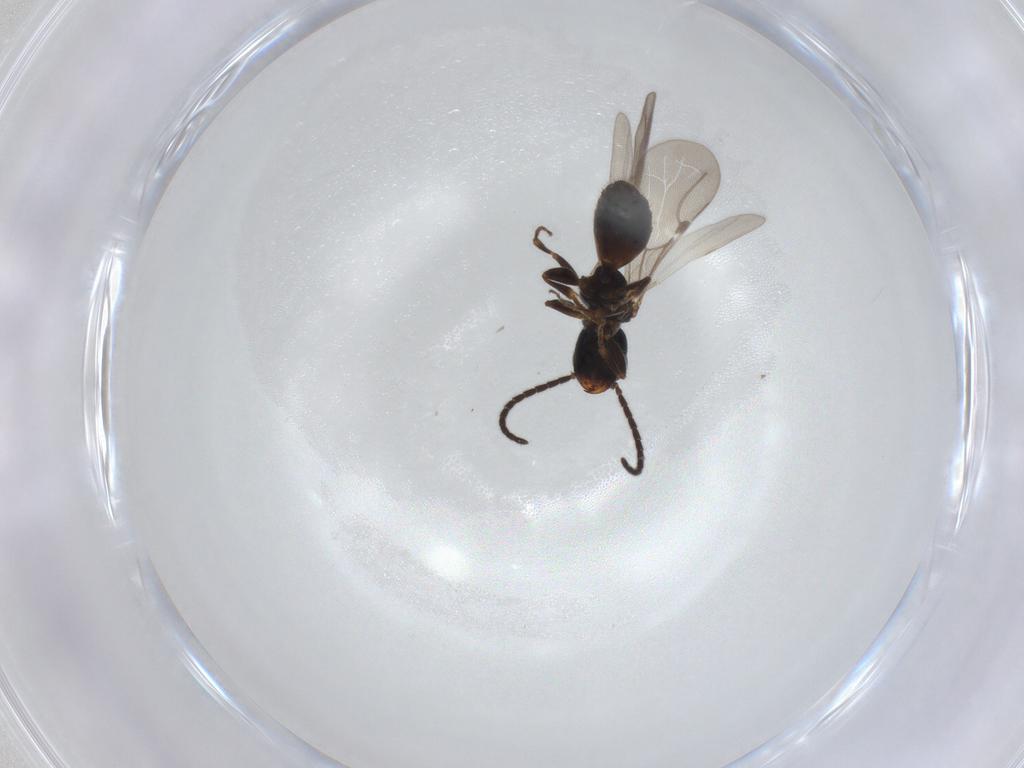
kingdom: Animalia
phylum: Arthropoda
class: Insecta
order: Hymenoptera
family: Bethylidae
